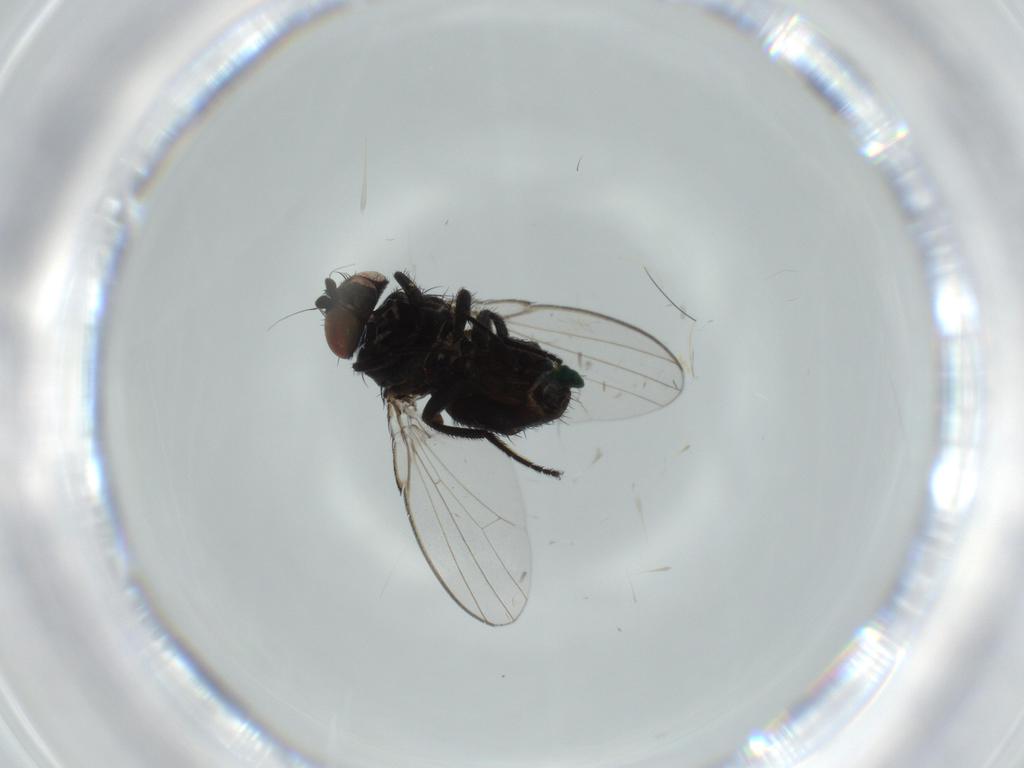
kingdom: Animalia
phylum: Arthropoda
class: Insecta
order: Diptera
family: Milichiidae
